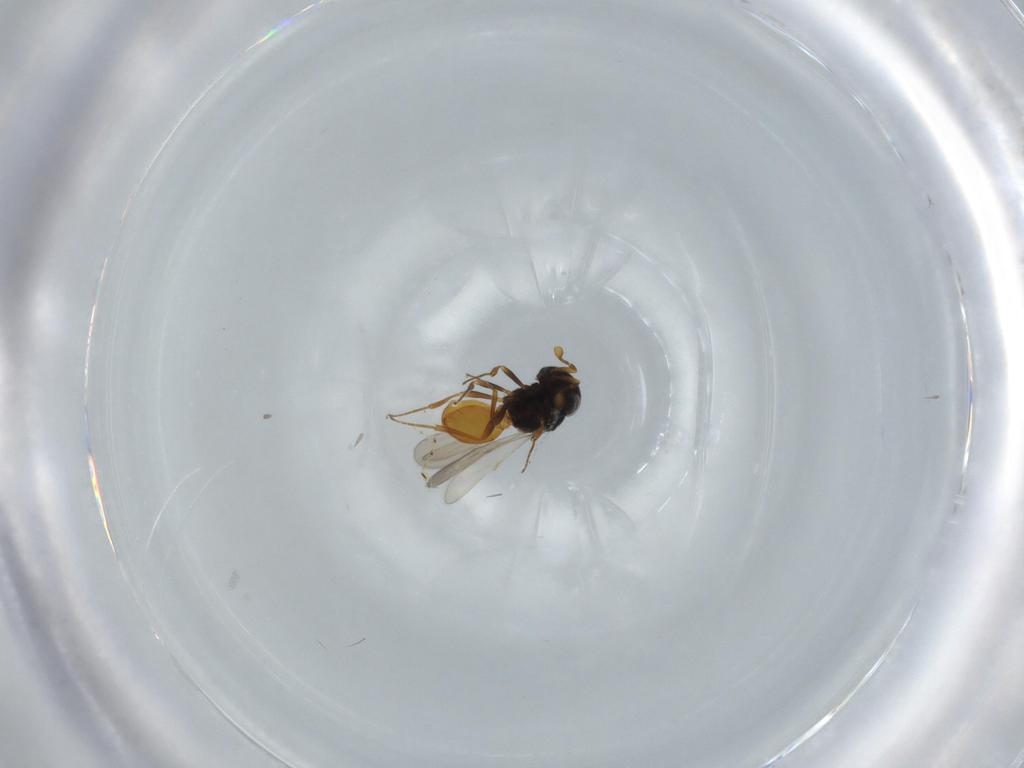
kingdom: Animalia
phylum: Arthropoda
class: Insecta
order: Hymenoptera
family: Scelionidae
